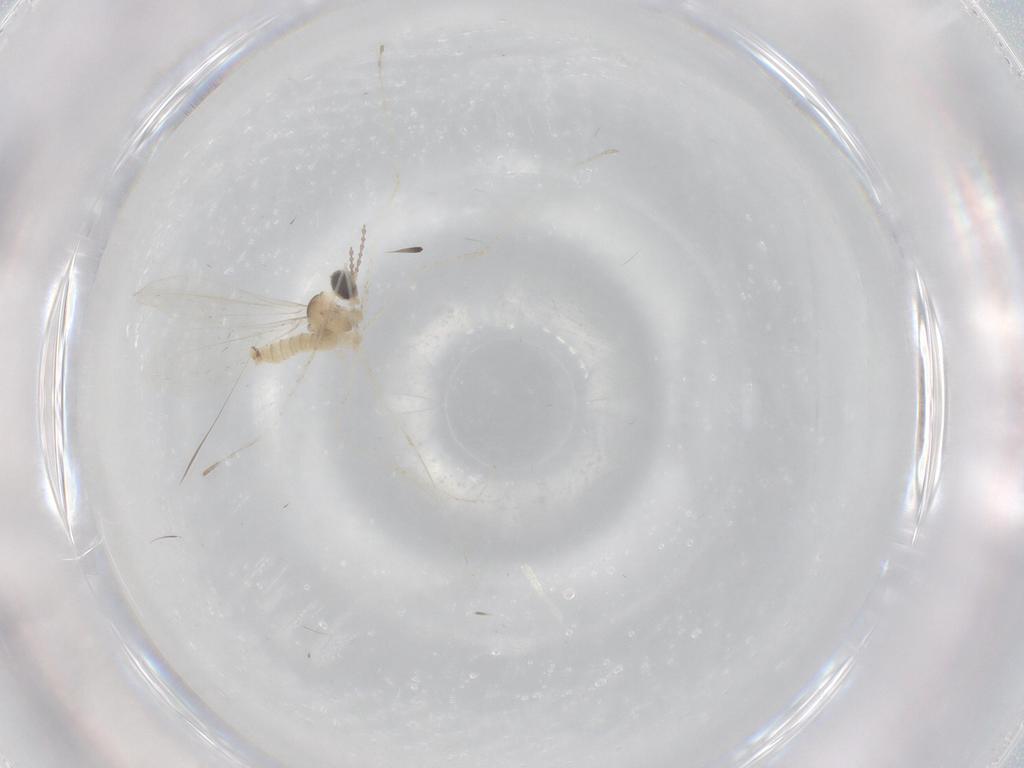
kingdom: Animalia
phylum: Arthropoda
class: Insecta
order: Diptera
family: Cecidomyiidae
